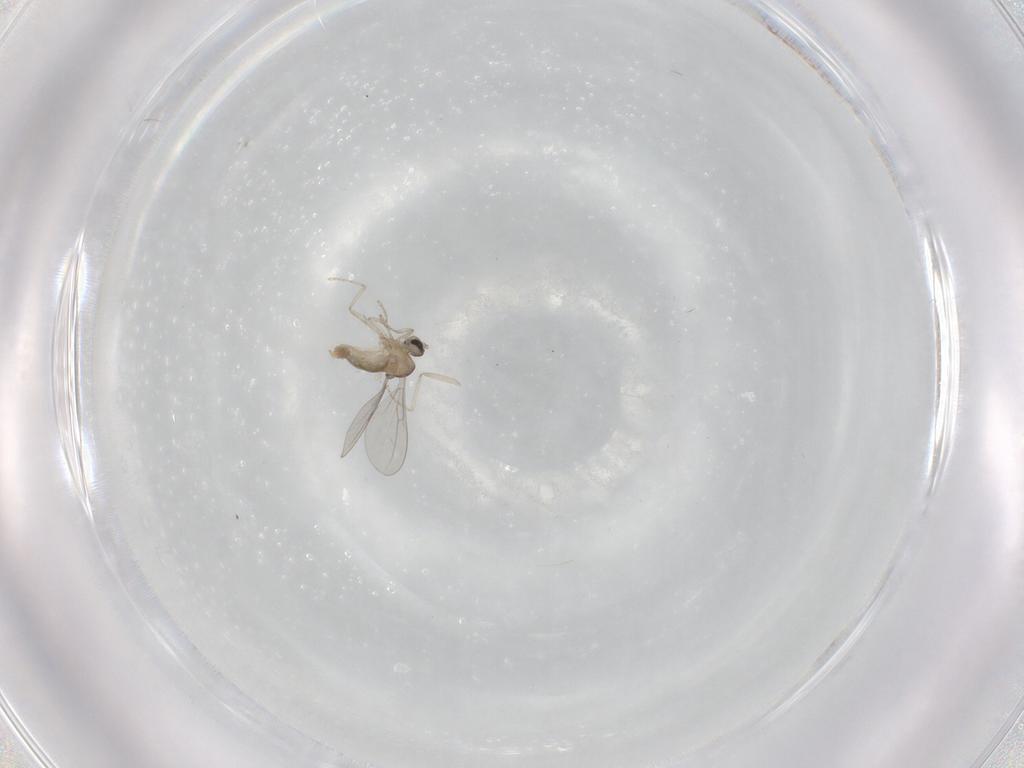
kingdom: Animalia
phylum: Arthropoda
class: Insecta
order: Diptera
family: Cecidomyiidae
